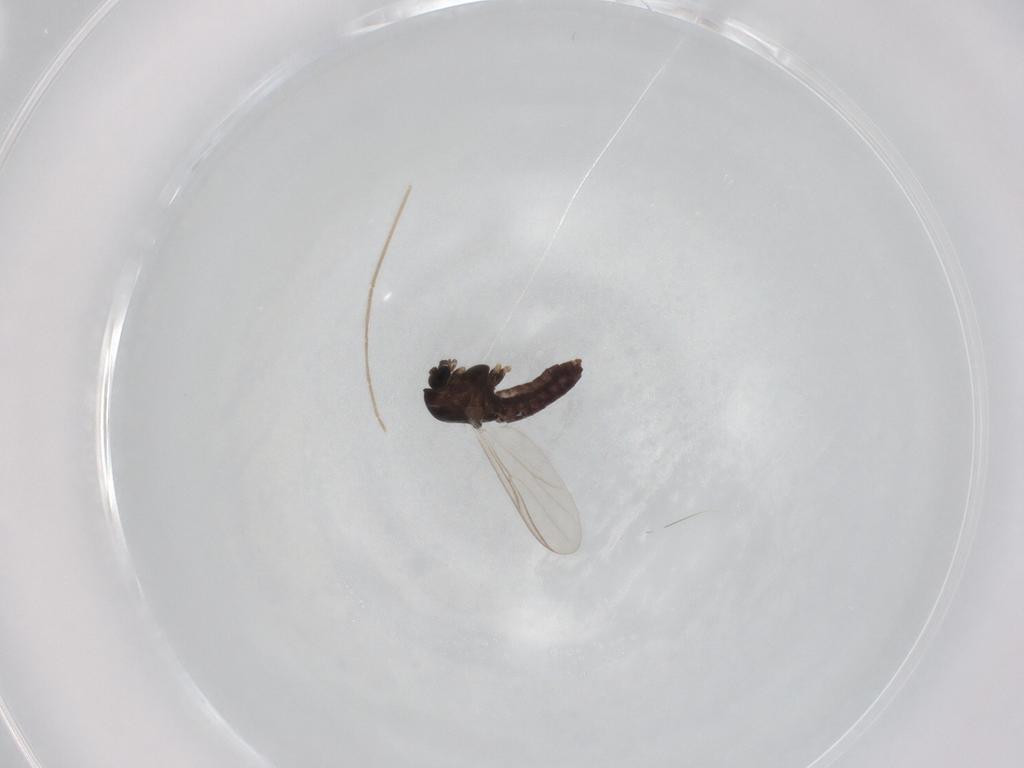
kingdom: Animalia
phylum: Arthropoda
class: Insecta
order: Diptera
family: Chironomidae
